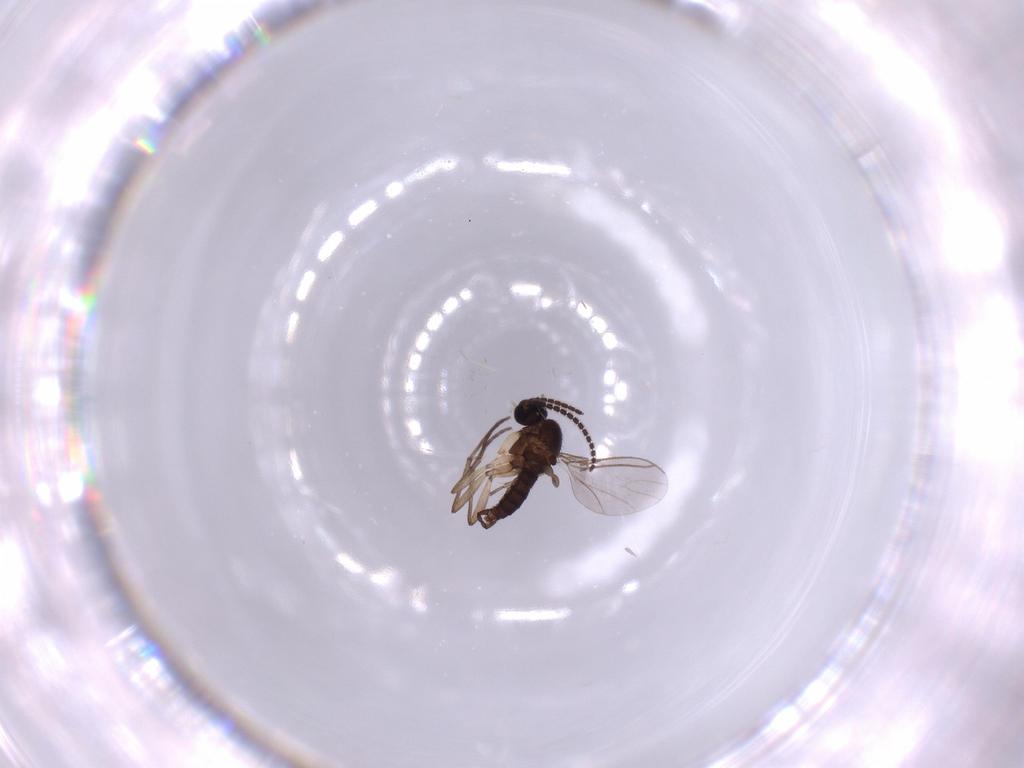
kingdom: Animalia
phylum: Arthropoda
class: Insecta
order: Diptera
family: Sciaridae
